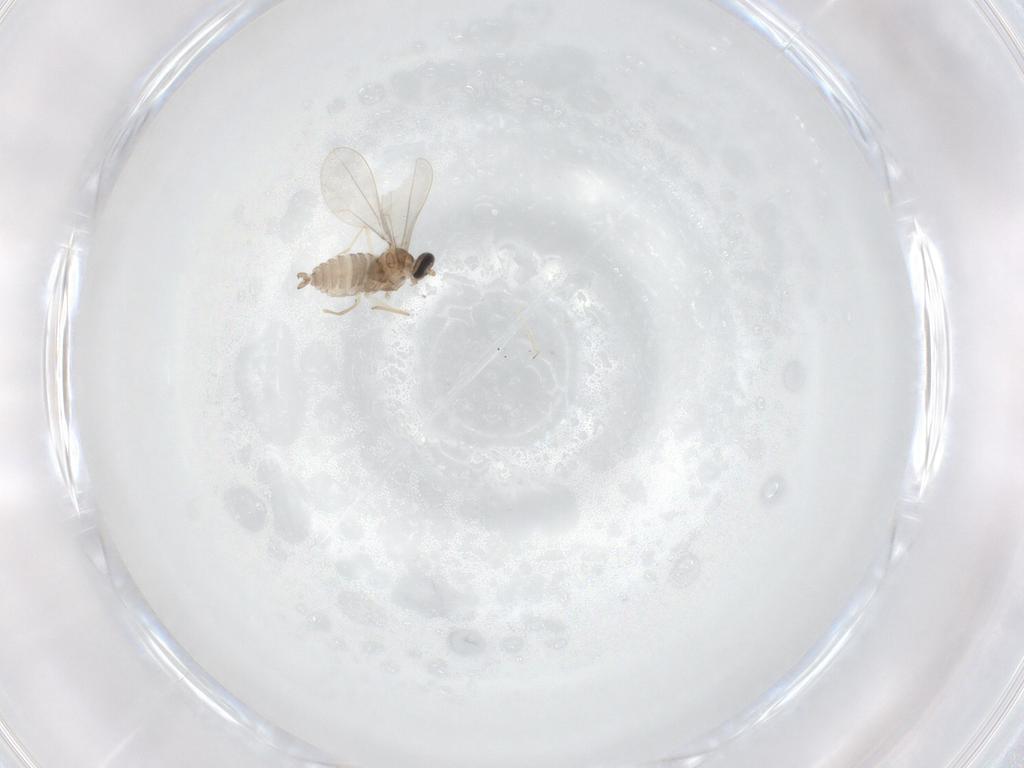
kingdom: Animalia
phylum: Arthropoda
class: Insecta
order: Diptera
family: Cecidomyiidae
